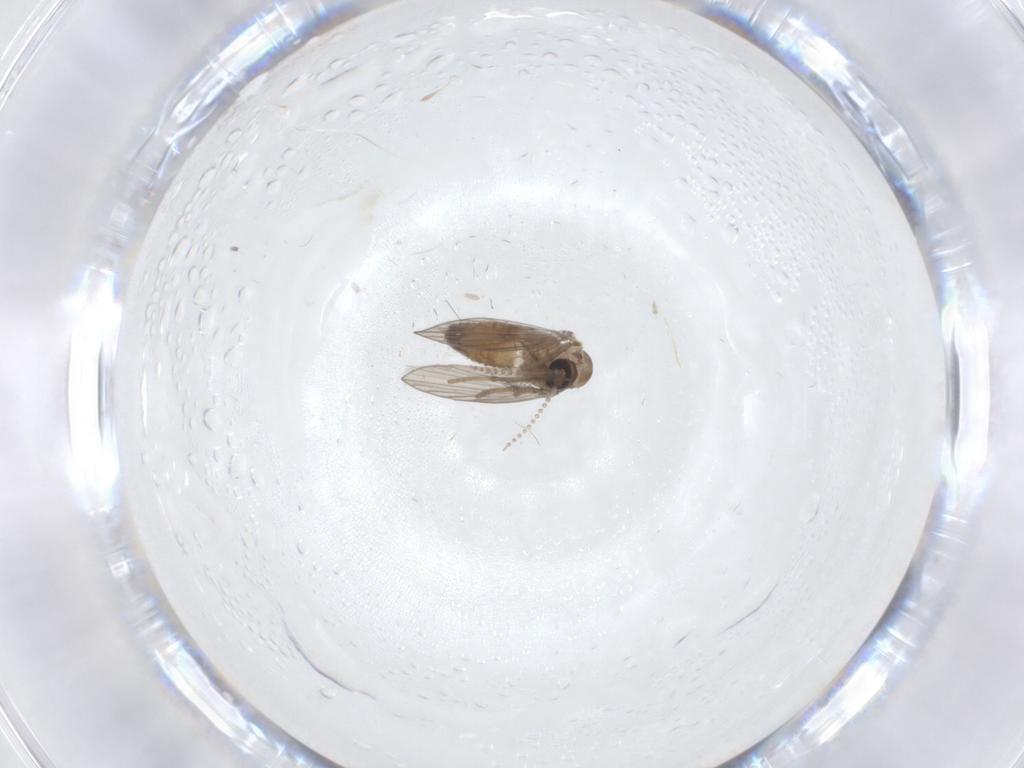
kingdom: Animalia
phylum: Arthropoda
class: Insecta
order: Diptera
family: Psychodidae
